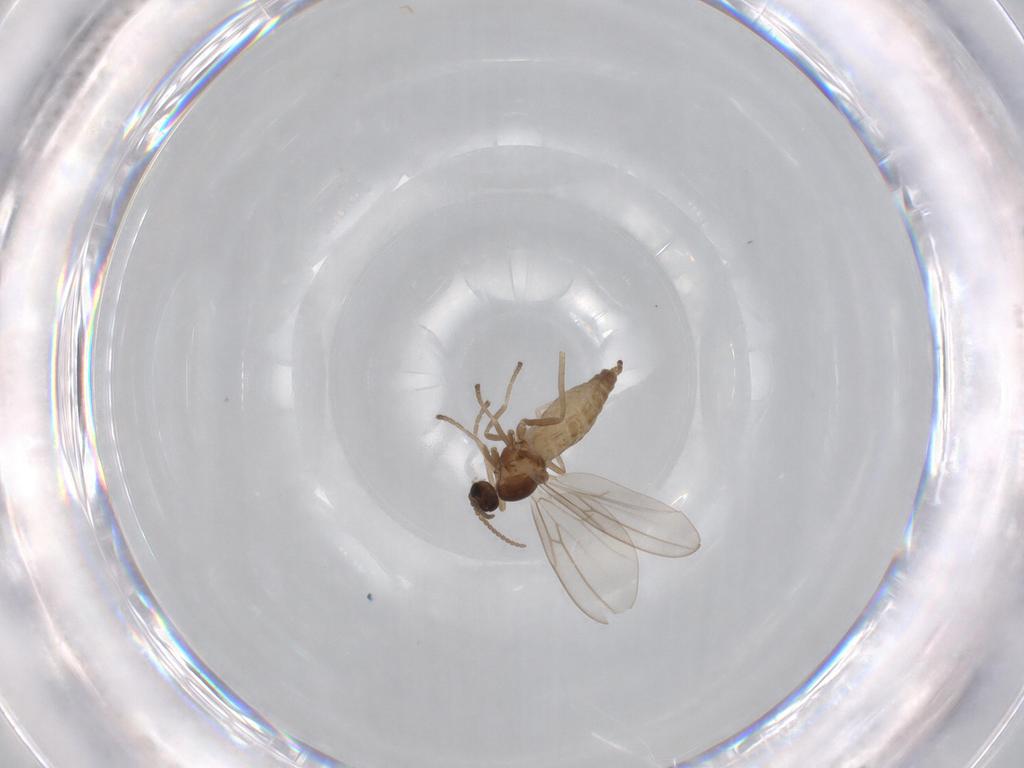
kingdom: Animalia
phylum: Arthropoda
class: Insecta
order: Diptera
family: Cecidomyiidae
